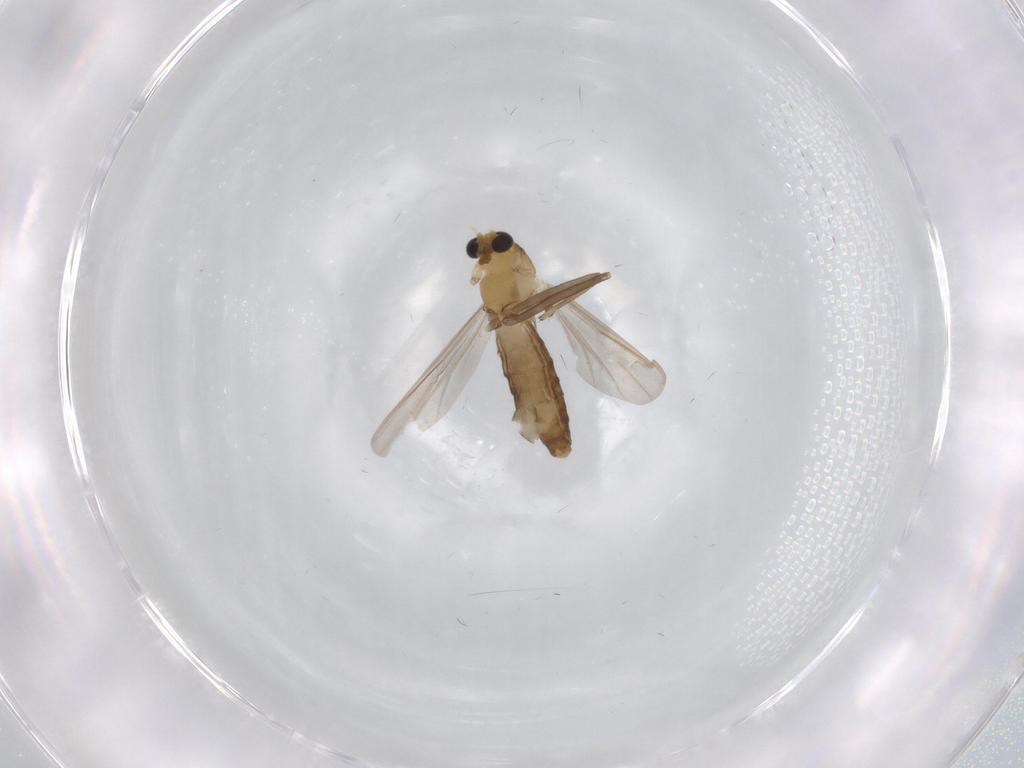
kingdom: Animalia
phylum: Arthropoda
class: Insecta
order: Diptera
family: Chironomidae
